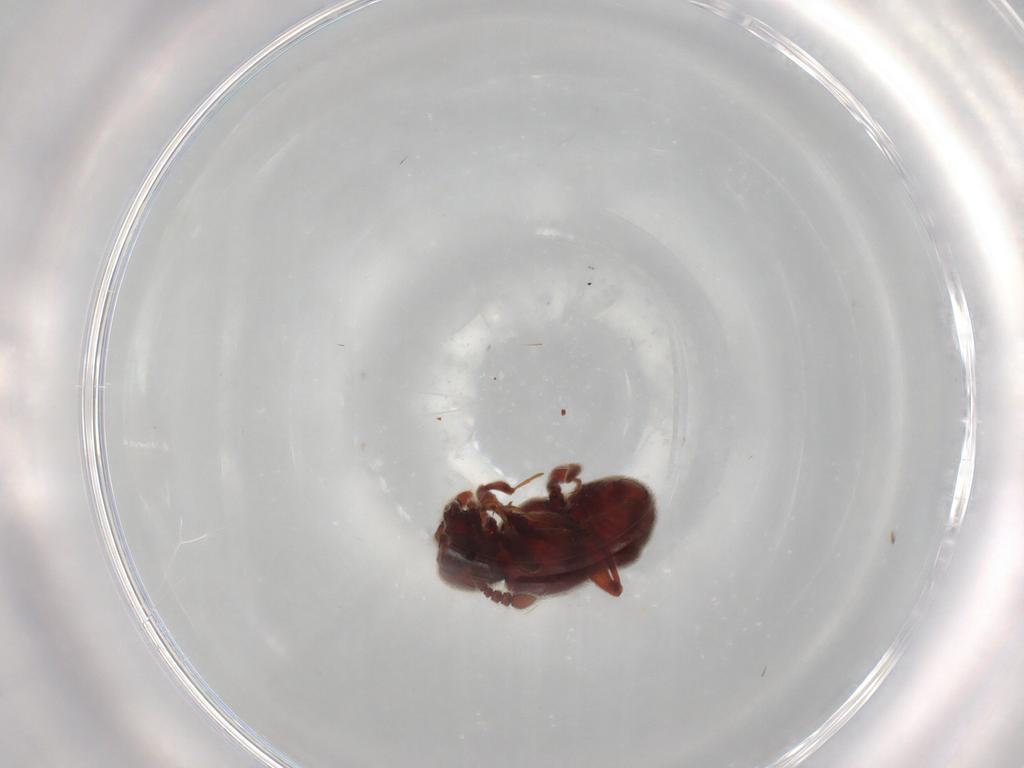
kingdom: Animalia
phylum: Arthropoda
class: Insecta
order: Coleoptera
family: Staphylinidae
